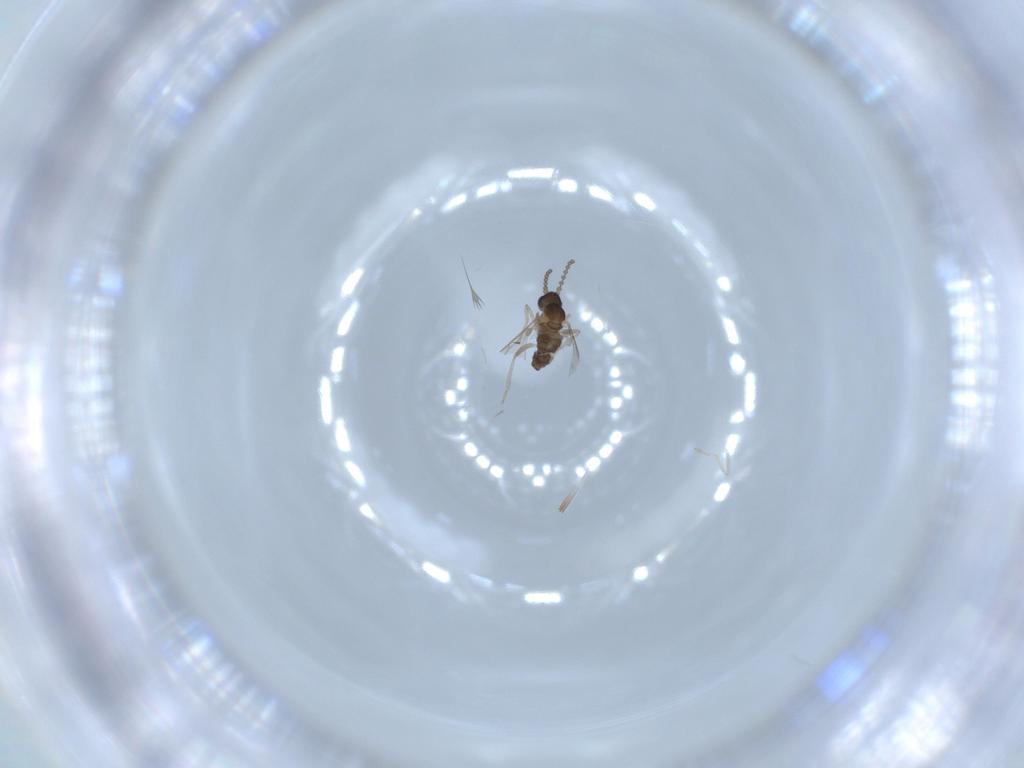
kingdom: Animalia
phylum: Arthropoda
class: Insecta
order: Diptera
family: Cecidomyiidae
